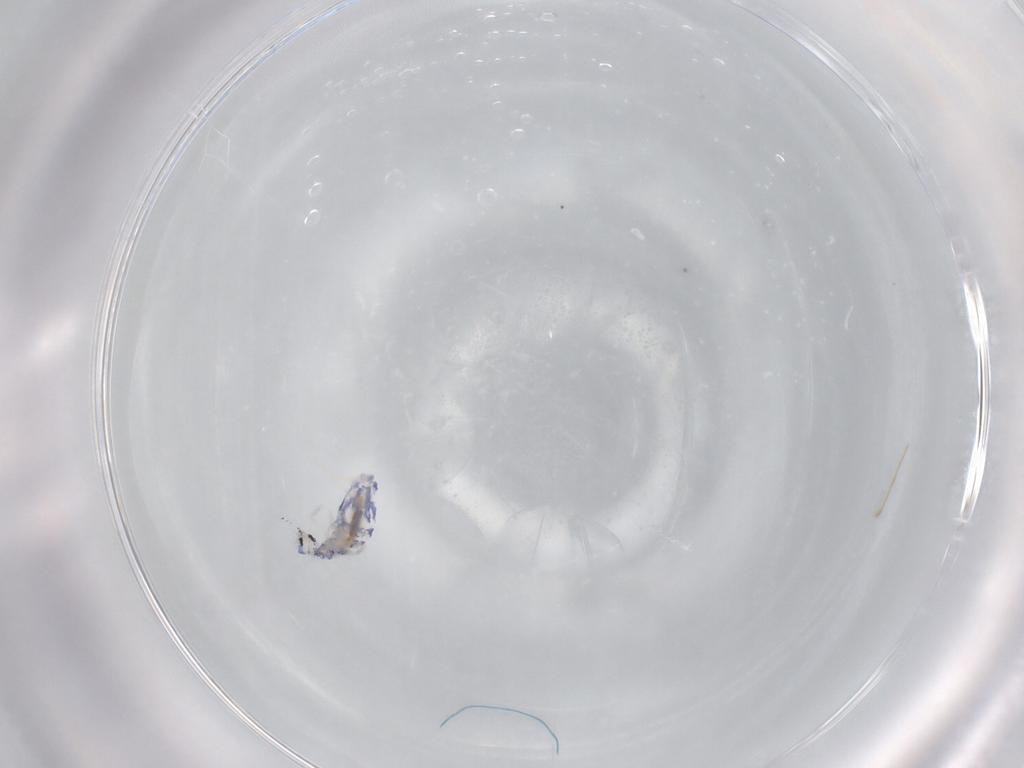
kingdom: Animalia
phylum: Arthropoda
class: Collembola
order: Entomobryomorpha
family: Entomobryidae
